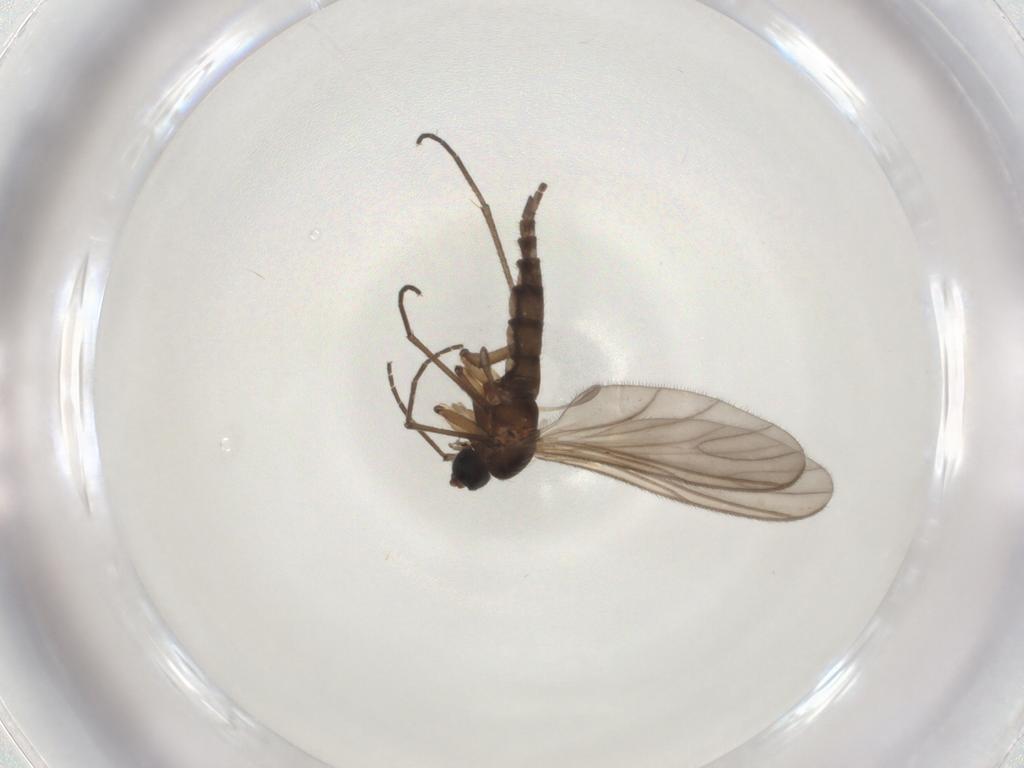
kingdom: Animalia
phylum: Arthropoda
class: Insecta
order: Diptera
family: Sciaridae
